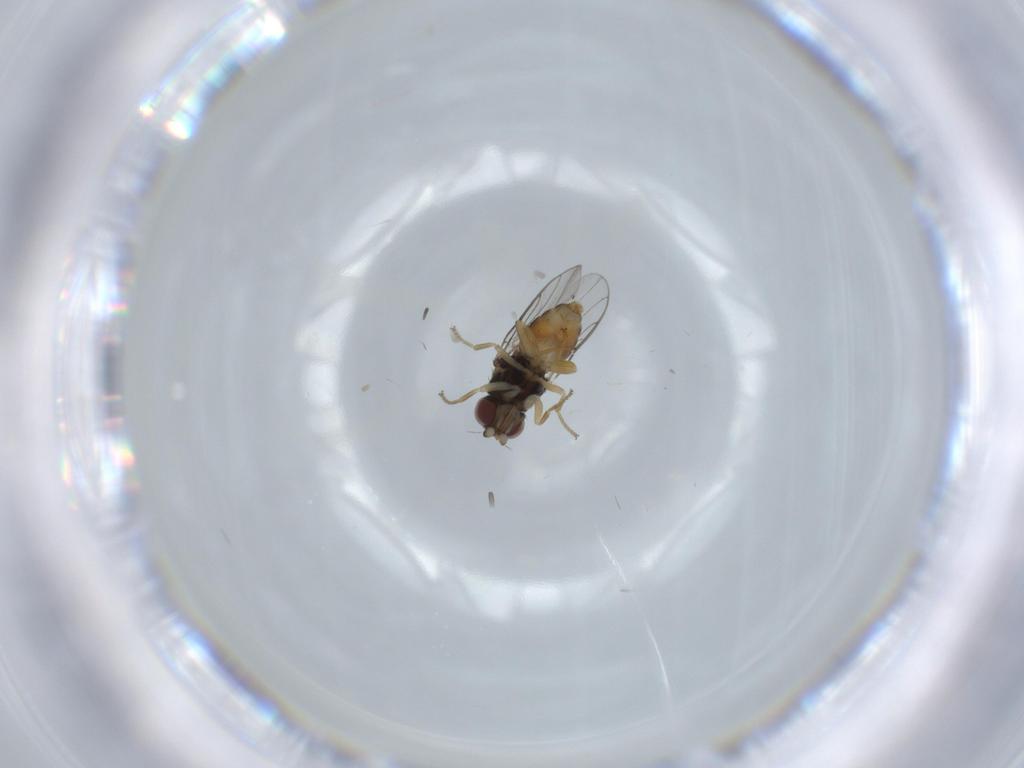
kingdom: Animalia
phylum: Arthropoda
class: Insecta
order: Diptera
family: Chloropidae
